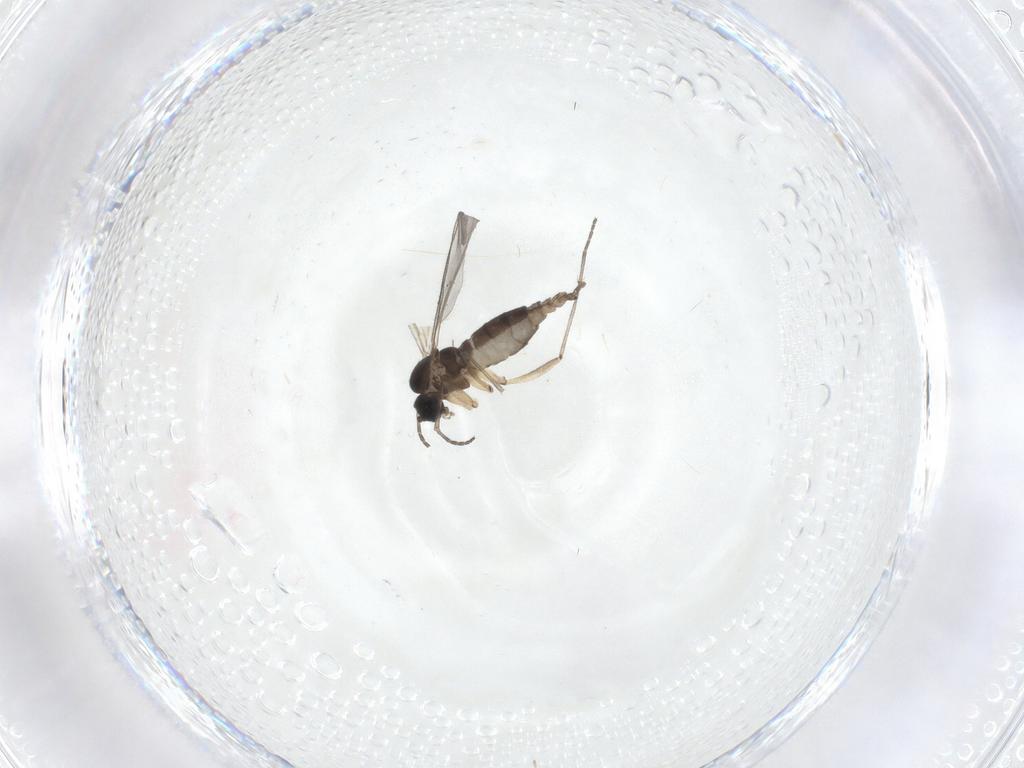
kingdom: Animalia
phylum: Arthropoda
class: Insecta
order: Diptera
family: Sciaridae
